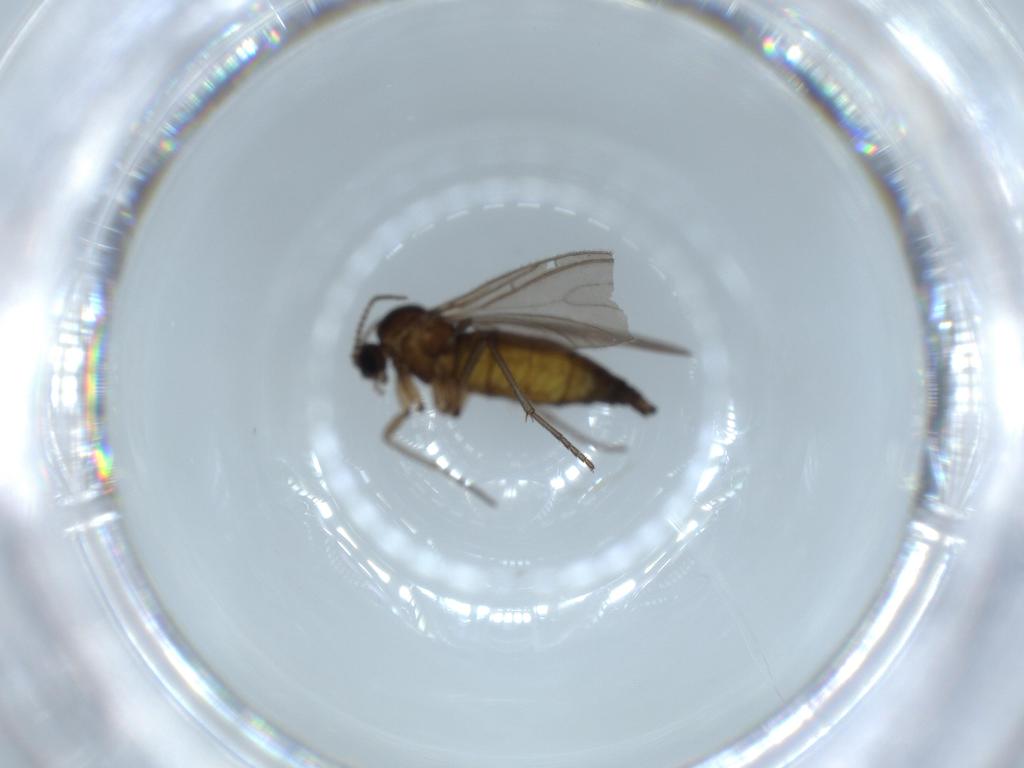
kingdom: Animalia
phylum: Arthropoda
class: Insecta
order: Diptera
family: Sciaridae
